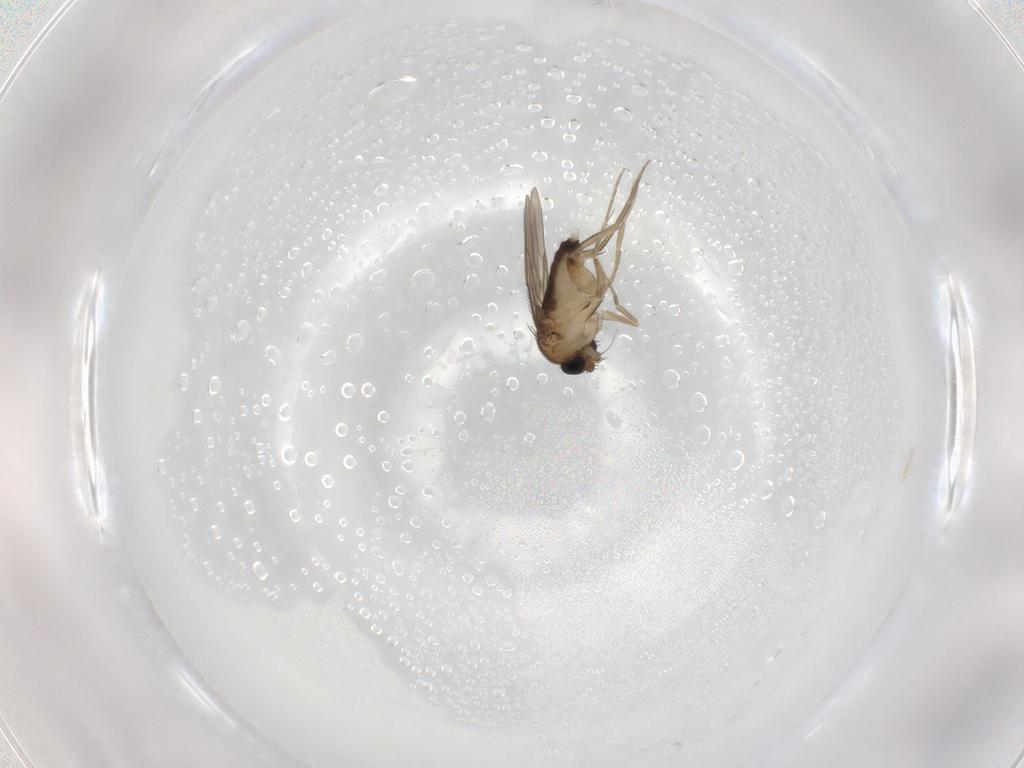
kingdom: Animalia
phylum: Arthropoda
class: Insecta
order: Diptera
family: Phoridae
